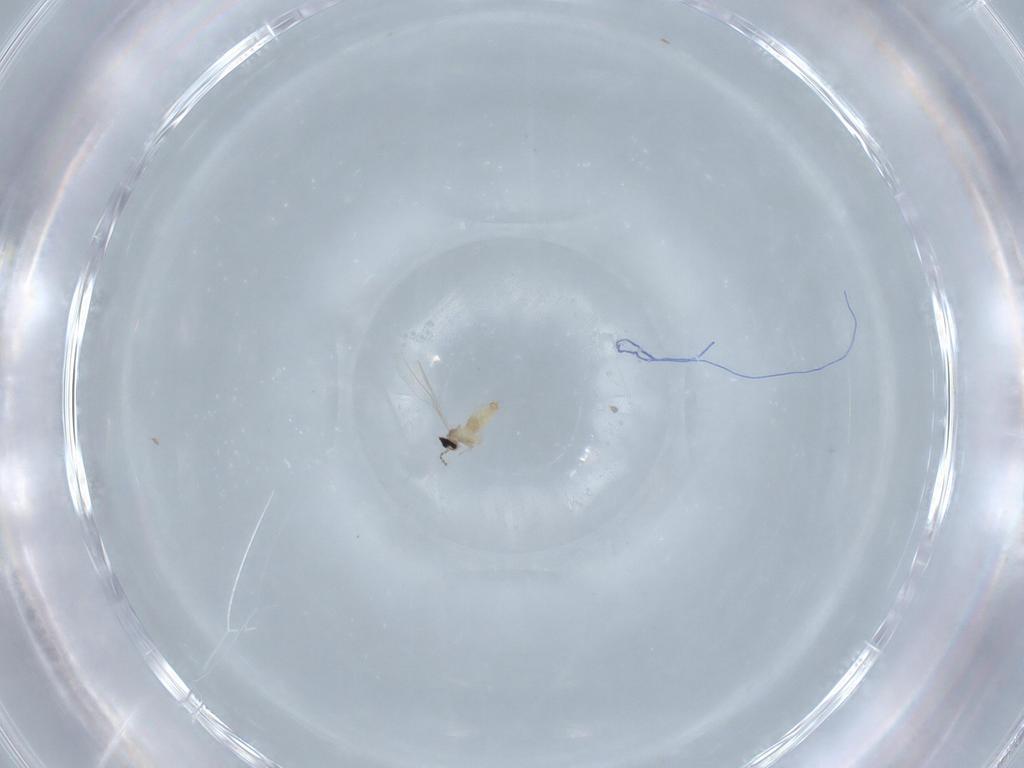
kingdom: Animalia
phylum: Arthropoda
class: Insecta
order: Diptera
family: Cecidomyiidae
